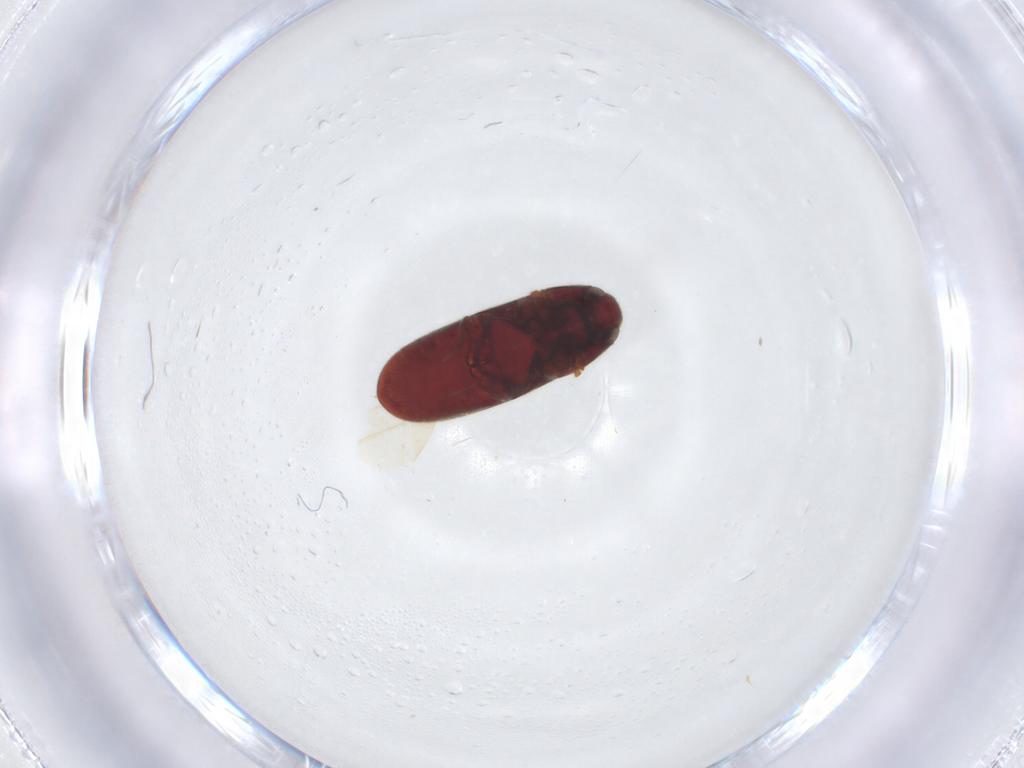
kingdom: Animalia
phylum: Arthropoda
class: Insecta
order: Coleoptera
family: Throscidae
